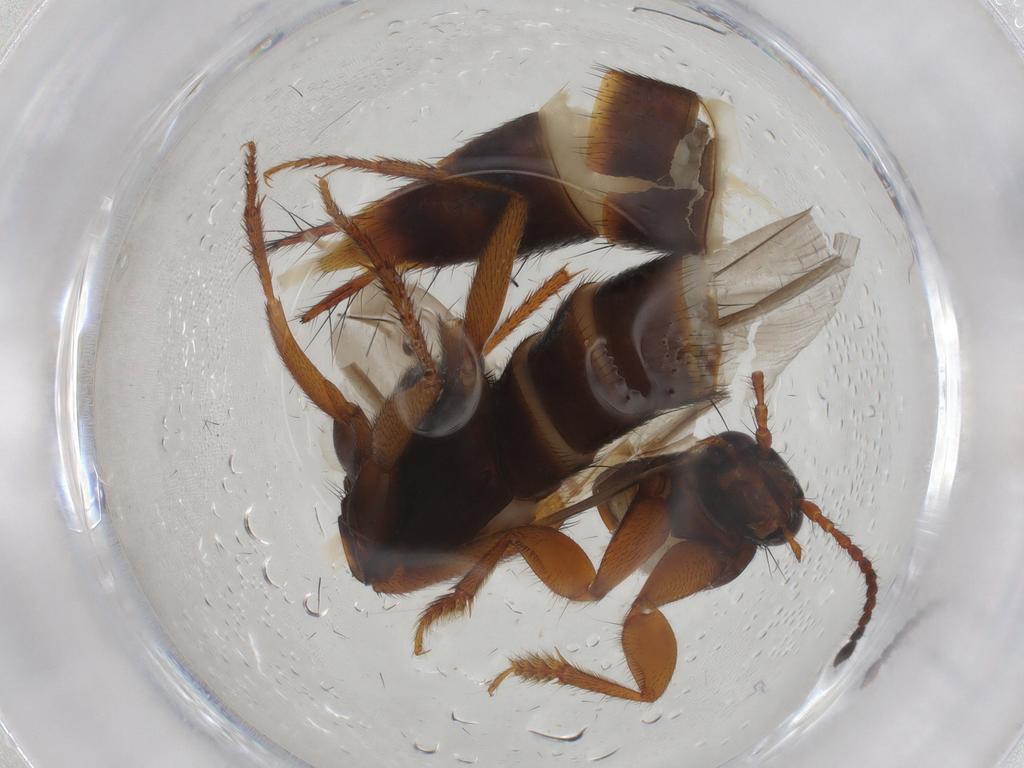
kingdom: Animalia
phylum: Arthropoda
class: Insecta
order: Coleoptera
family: Staphylinidae
